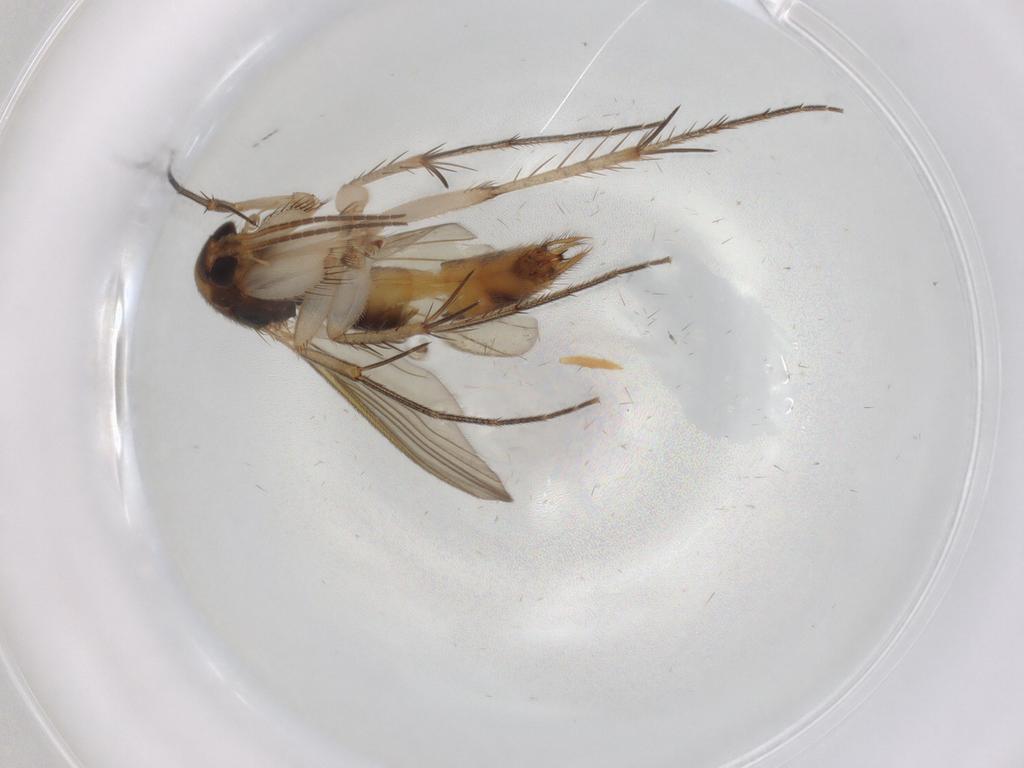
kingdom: Animalia
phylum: Arthropoda
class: Insecta
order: Diptera
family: Mycetophilidae
